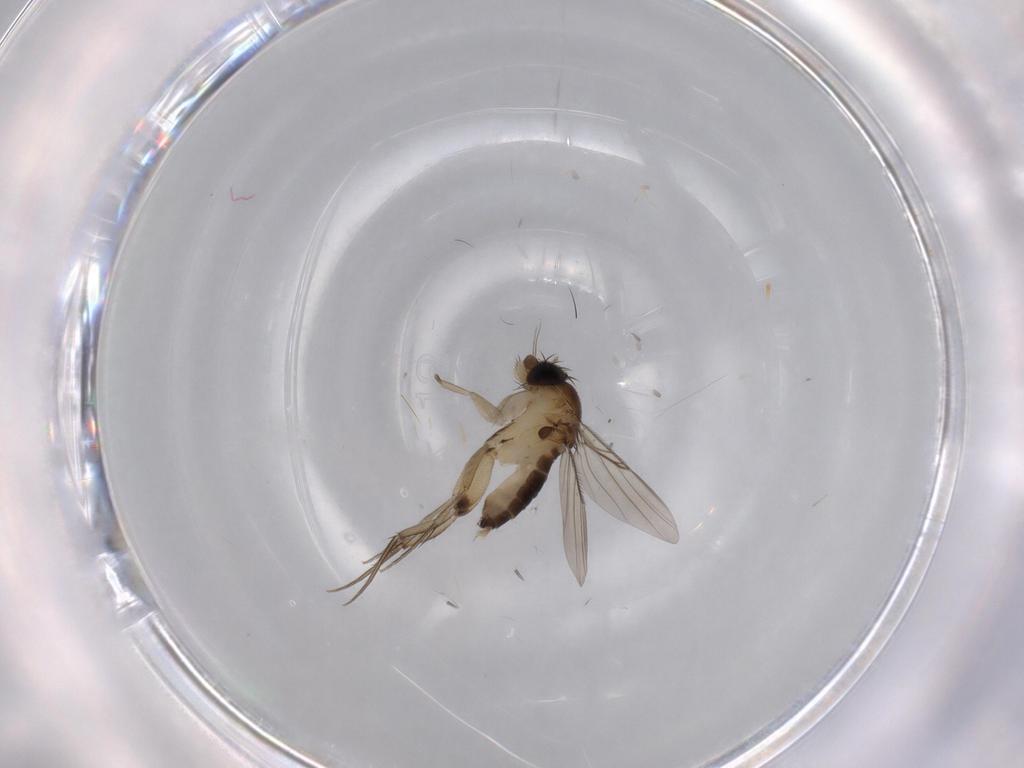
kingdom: Animalia
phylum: Arthropoda
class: Insecta
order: Diptera
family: Phoridae
